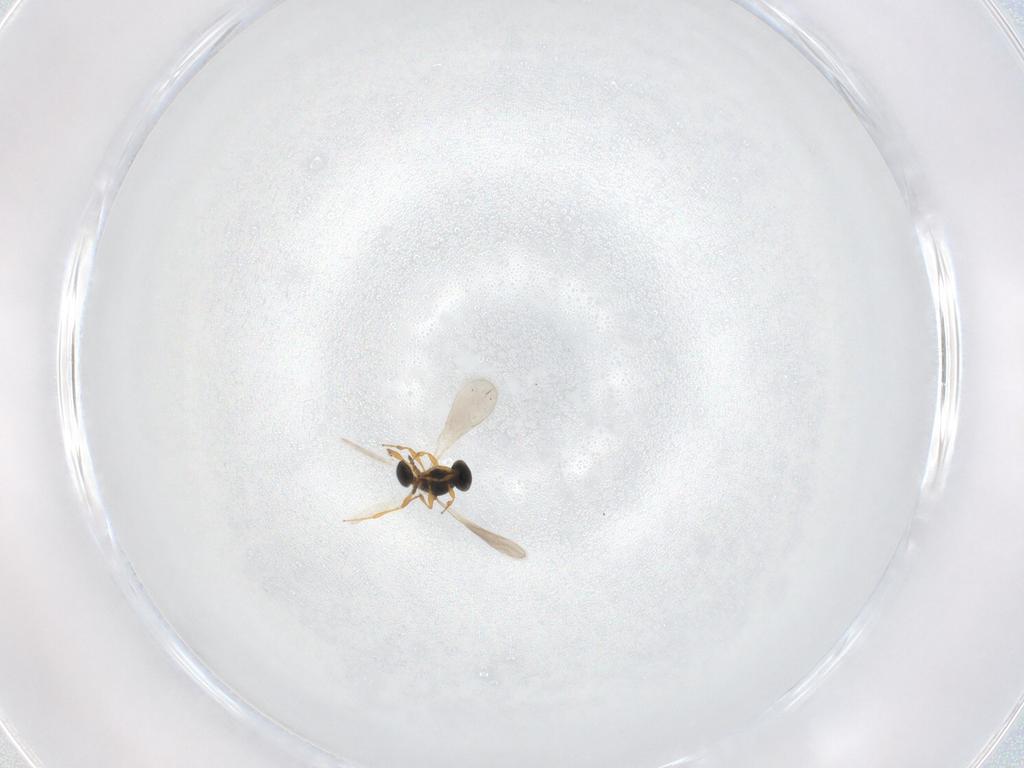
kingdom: Animalia
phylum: Arthropoda
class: Insecta
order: Hymenoptera
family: Platygastridae
